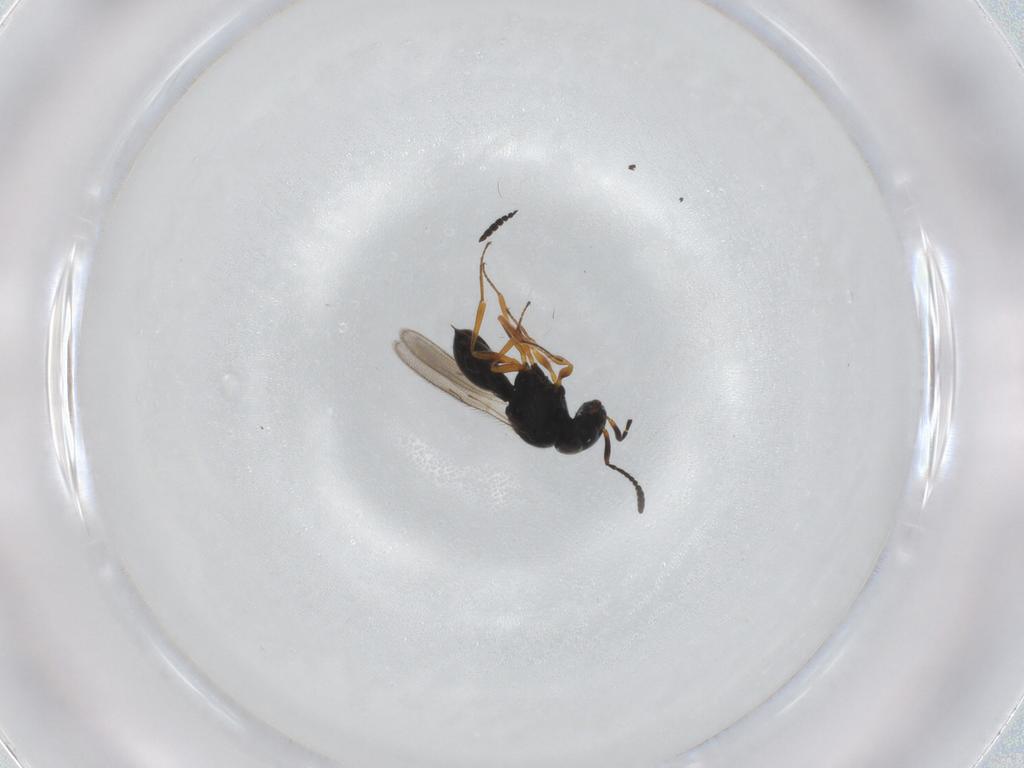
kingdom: Animalia
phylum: Arthropoda
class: Insecta
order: Hymenoptera
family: Scelionidae
